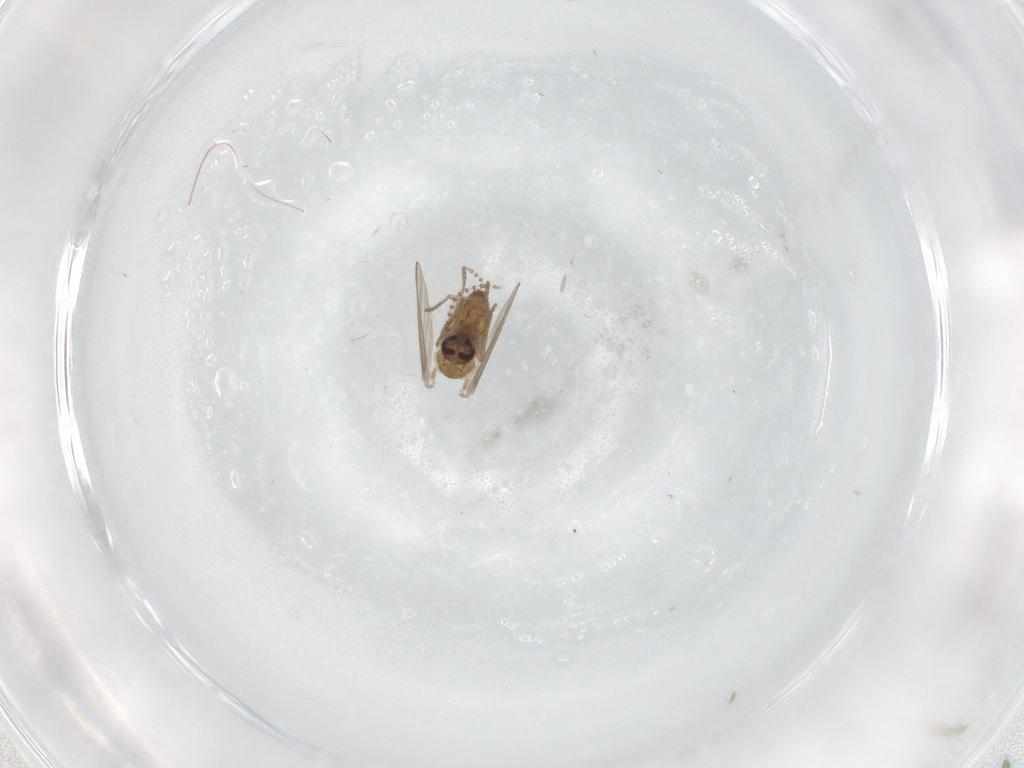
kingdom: Animalia
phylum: Arthropoda
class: Insecta
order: Diptera
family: Psychodidae
